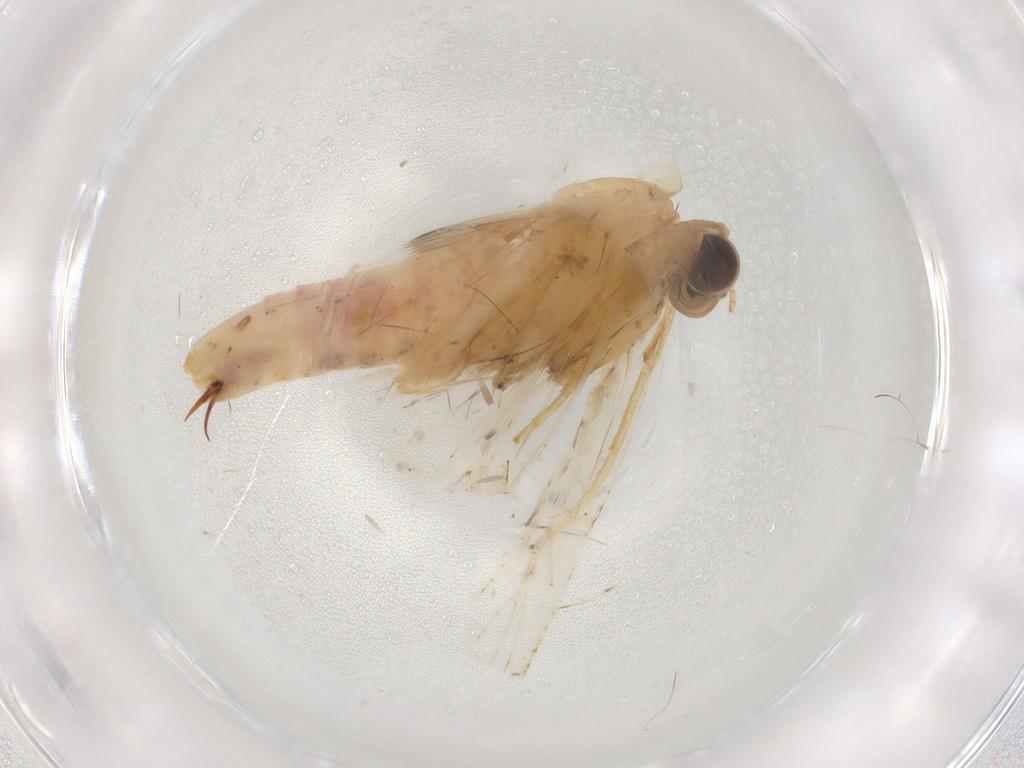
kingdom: Animalia
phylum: Arthropoda
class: Insecta
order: Lepidoptera
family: Geometridae
